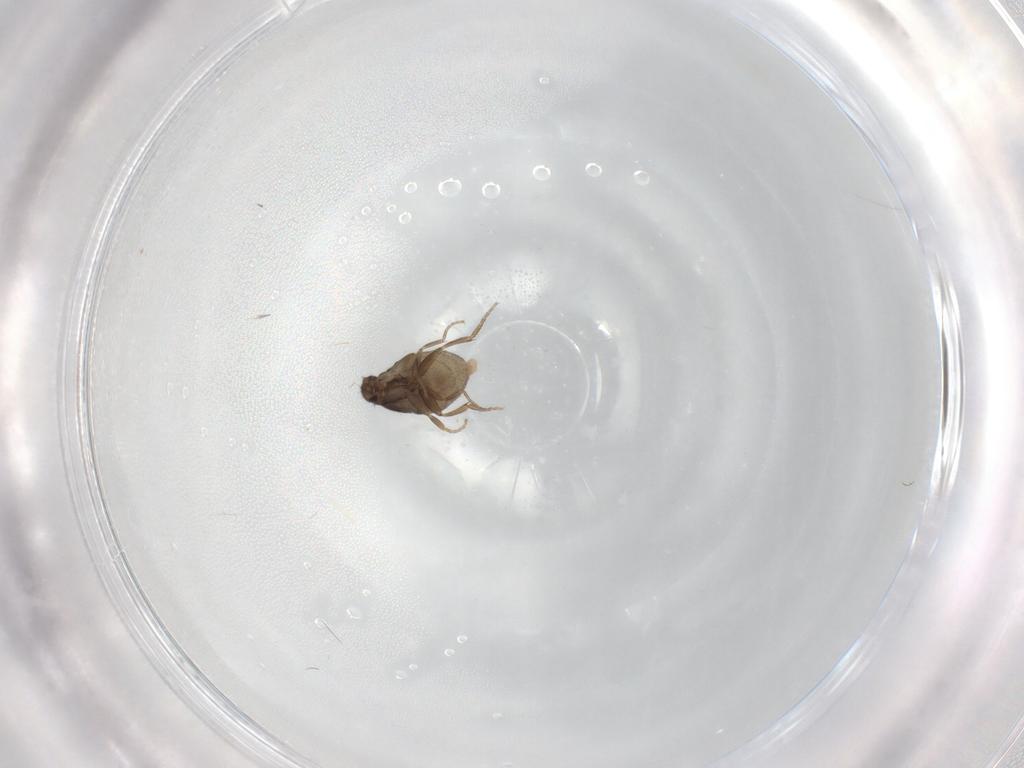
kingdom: Animalia
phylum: Arthropoda
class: Insecta
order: Diptera
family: Phoridae
